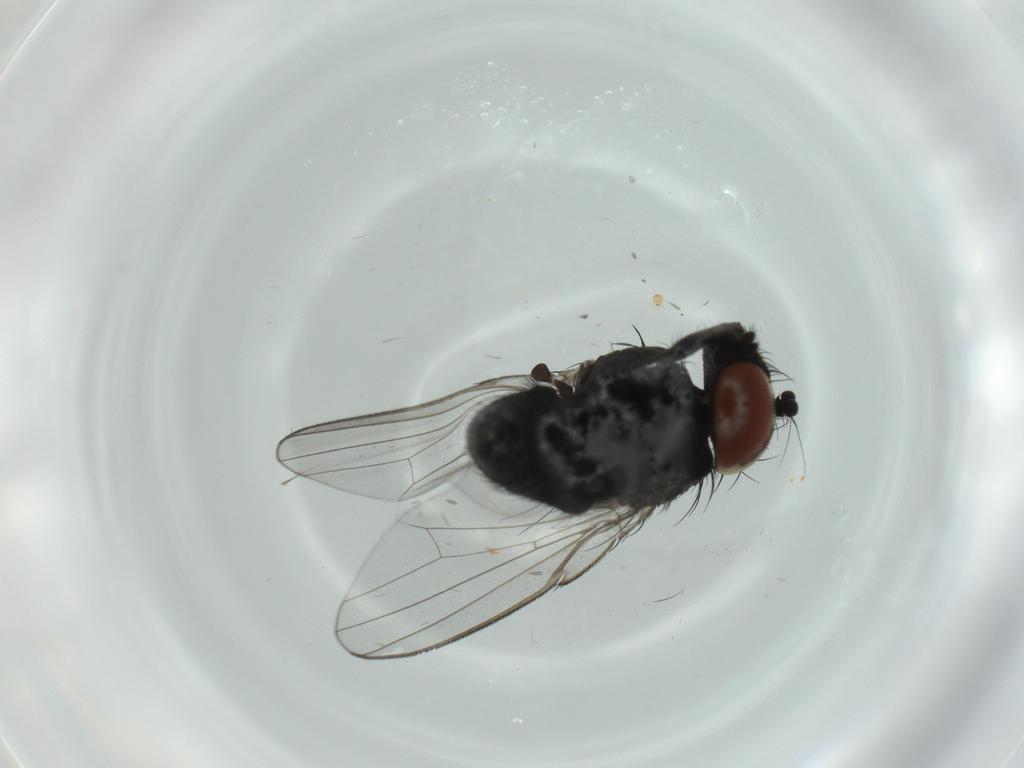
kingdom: Animalia
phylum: Arthropoda
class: Insecta
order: Diptera
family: Milichiidae
